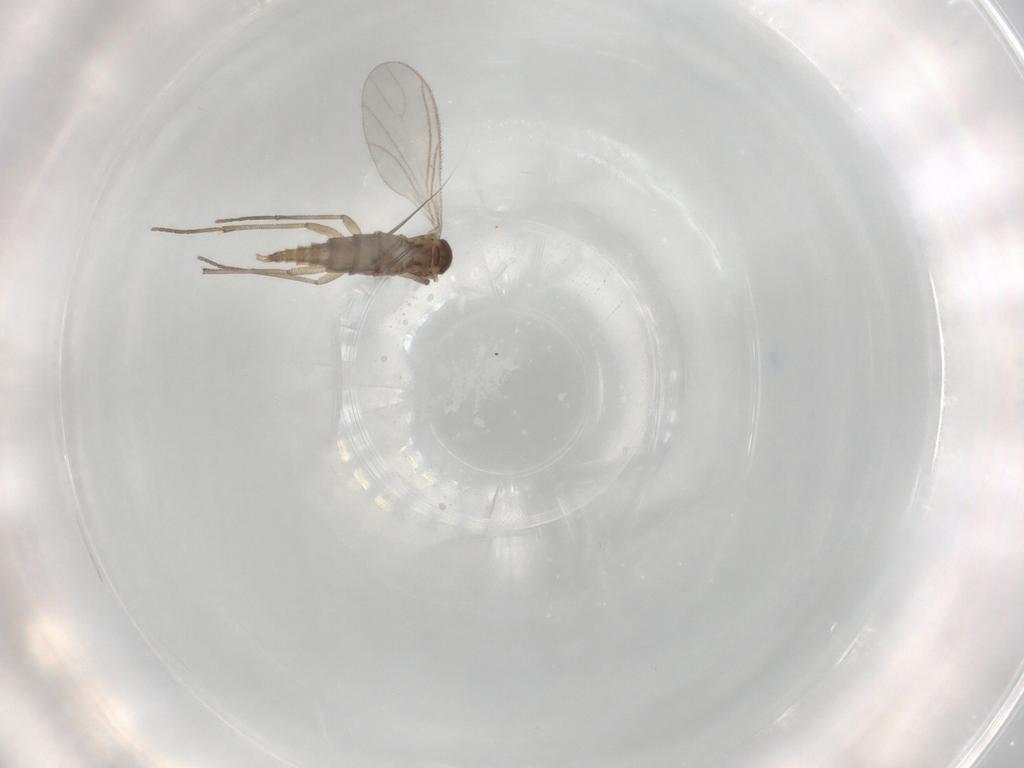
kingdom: Animalia
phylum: Arthropoda
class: Insecta
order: Diptera
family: Sciaridae
